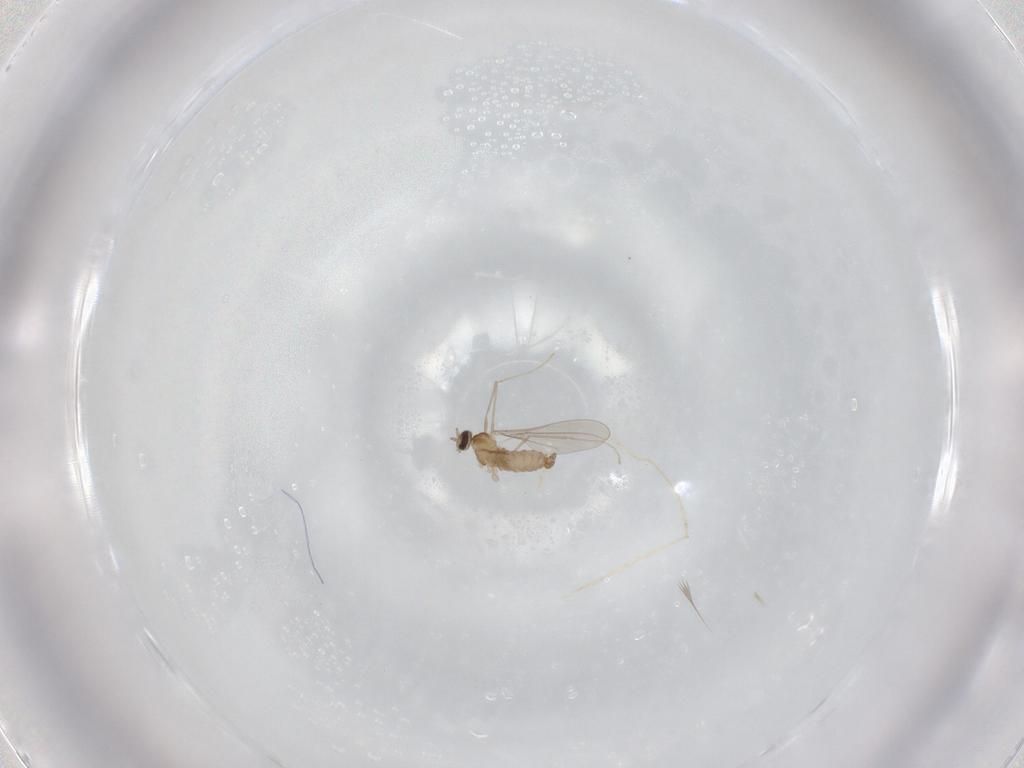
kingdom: Animalia
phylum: Arthropoda
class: Insecta
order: Diptera
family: Cecidomyiidae
